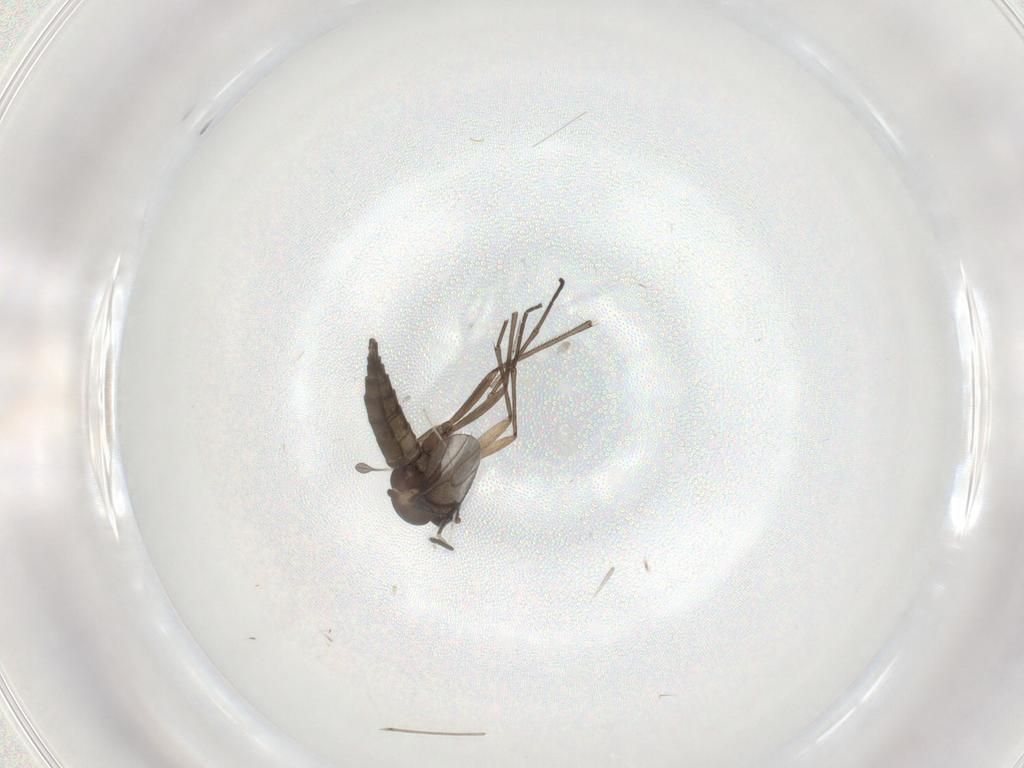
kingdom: Animalia
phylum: Arthropoda
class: Insecta
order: Diptera
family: Sciaridae
